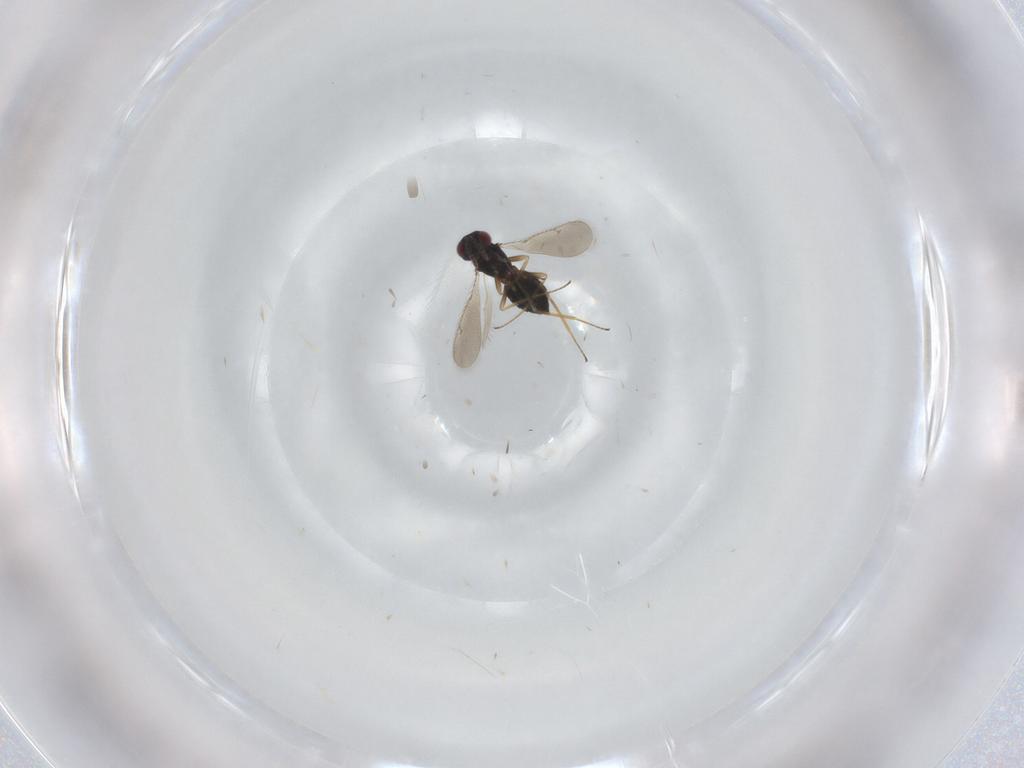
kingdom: Animalia
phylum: Arthropoda
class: Insecta
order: Hymenoptera
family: Tetracampidae
